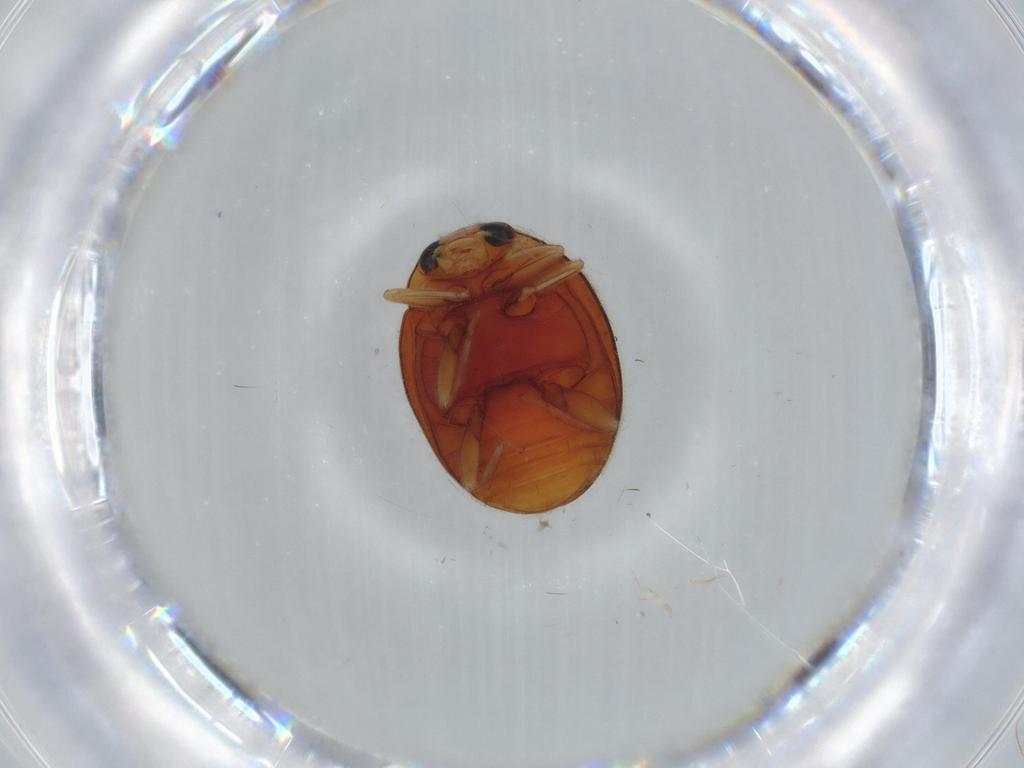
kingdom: Animalia
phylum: Arthropoda
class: Insecta
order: Coleoptera
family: Coccinellidae
